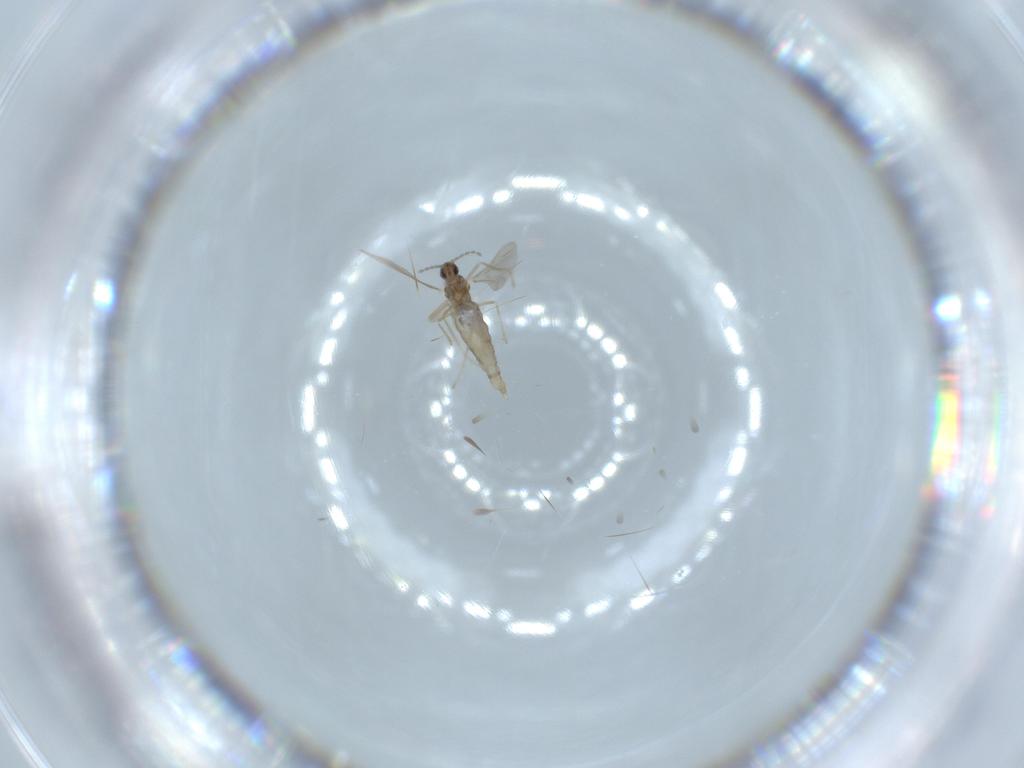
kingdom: Animalia
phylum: Arthropoda
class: Insecta
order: Diptera
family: Cecidomyiidae
